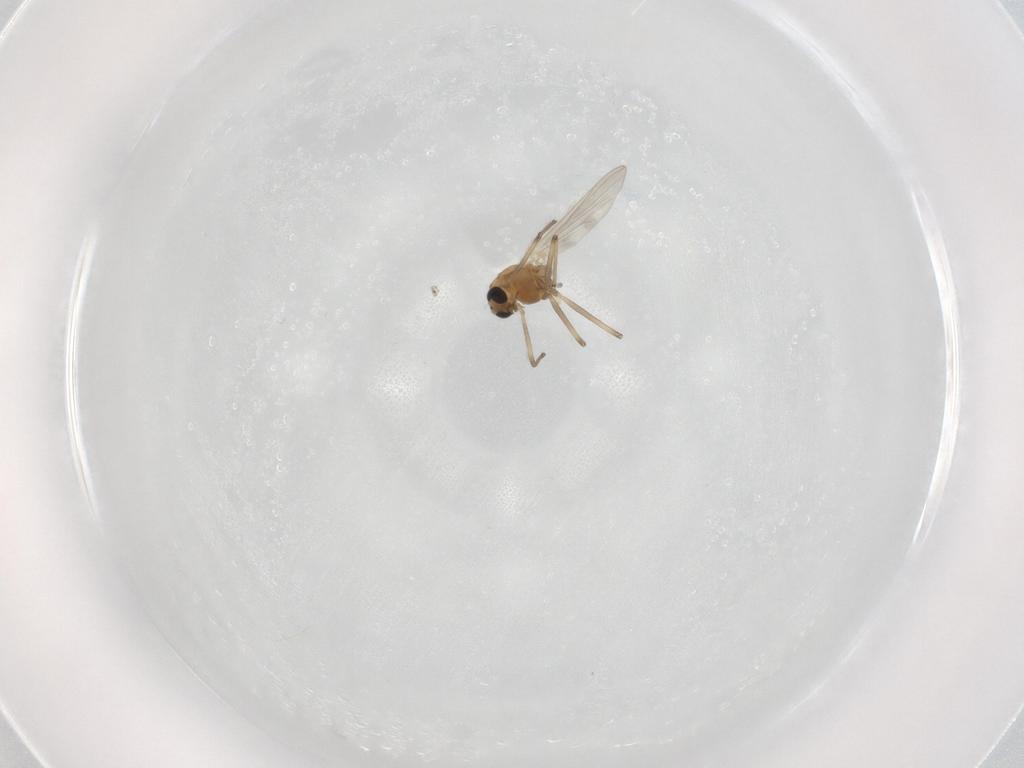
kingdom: Animalia
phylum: Arthropoda
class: Insecta
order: Diptera
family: Chironomidae
